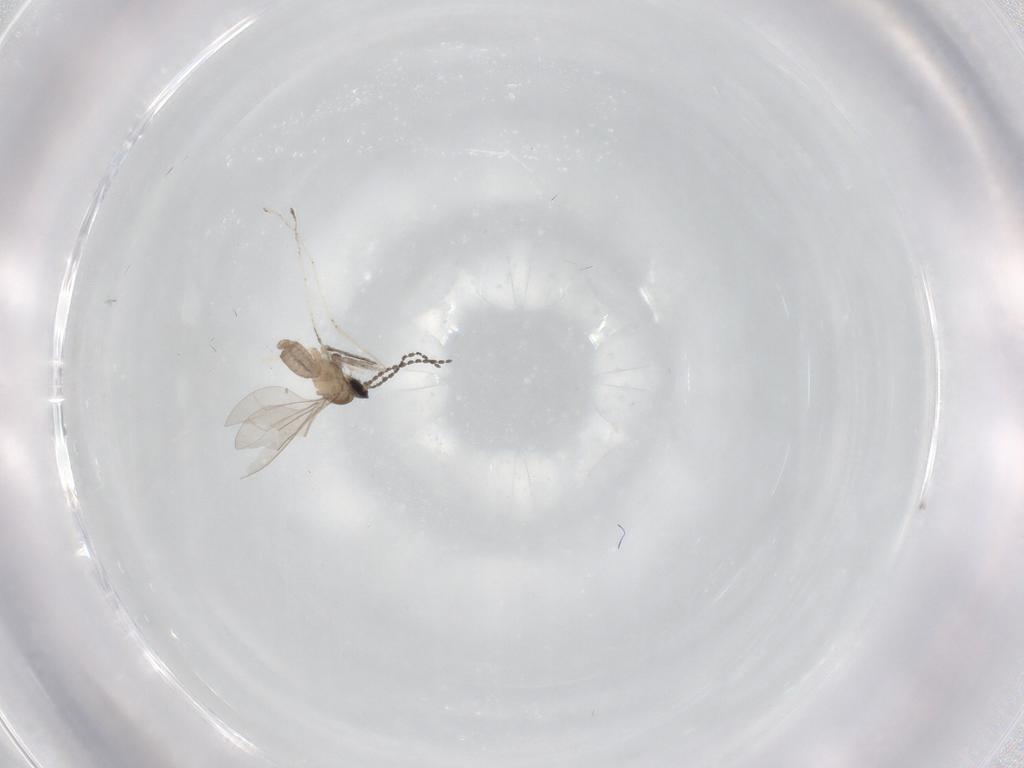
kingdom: Animalia
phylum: Arthropoda
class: Insecta
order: Diptera
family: Cecidomyiidae
